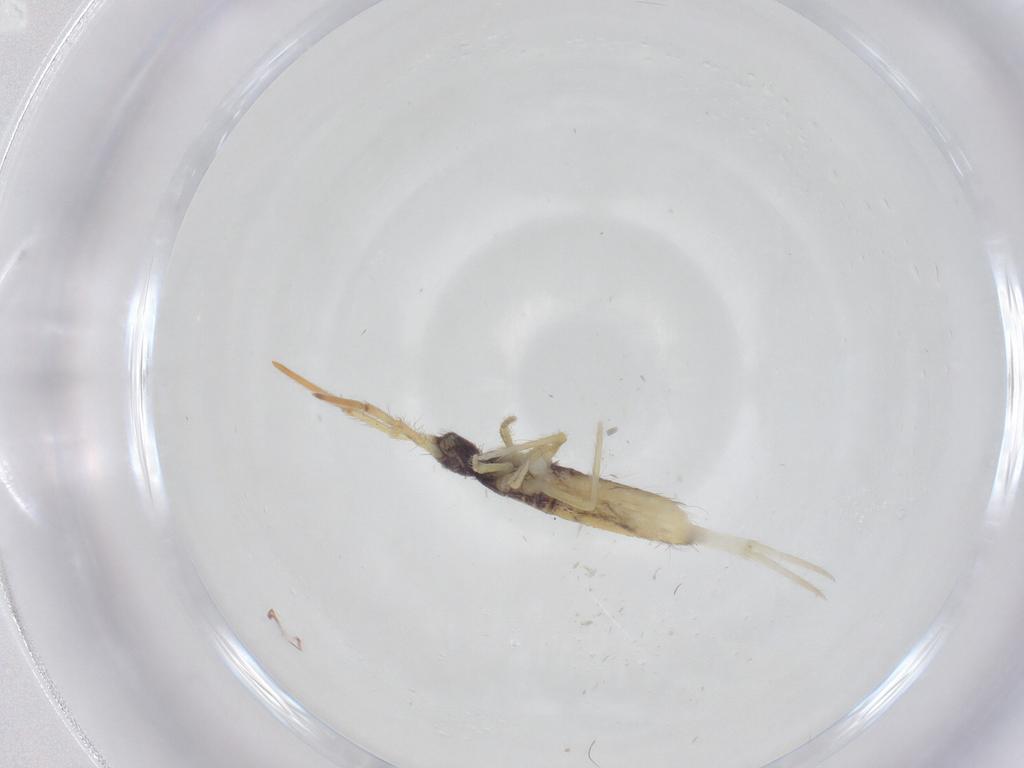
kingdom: Animalia
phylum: Arthropoda
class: Collembola
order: Entomobryomorpha
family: Entomobryidae
